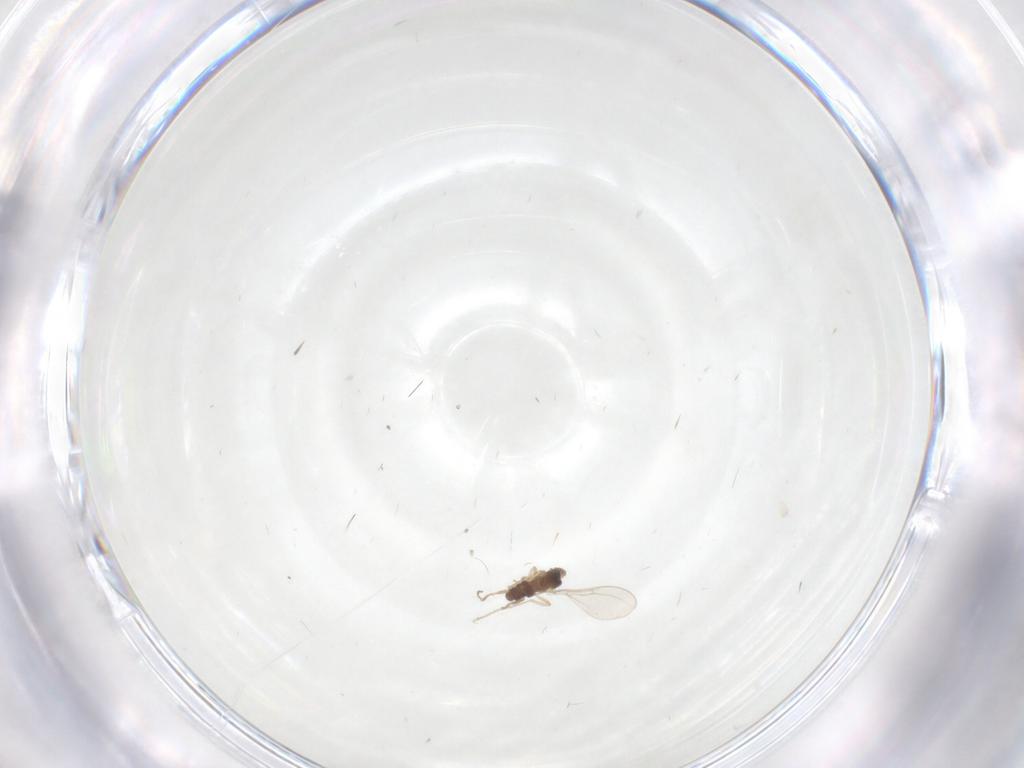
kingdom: Animalia
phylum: Arthropoda
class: Insecta
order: Diptera
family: Cecidomyiidae
